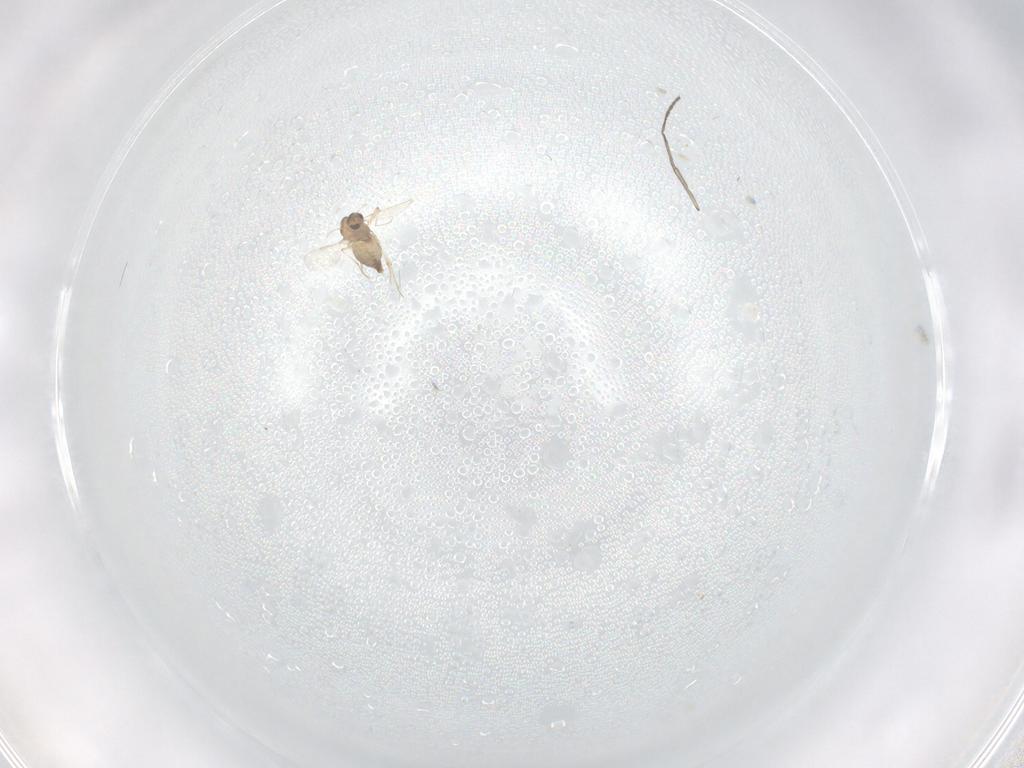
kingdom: Animalia
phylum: Arthropoda
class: Insecta
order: Diptera
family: Chironomidae
